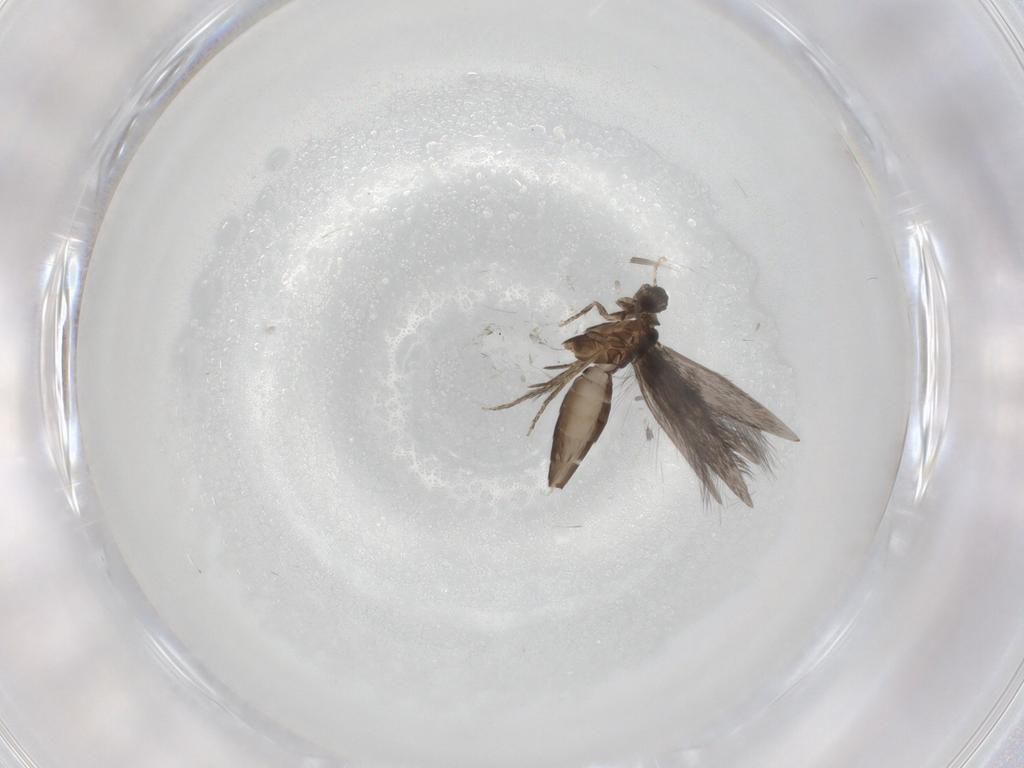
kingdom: Animalia
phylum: Arthropoda
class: Insecta
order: Trichoptera
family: Hydroptilidae
